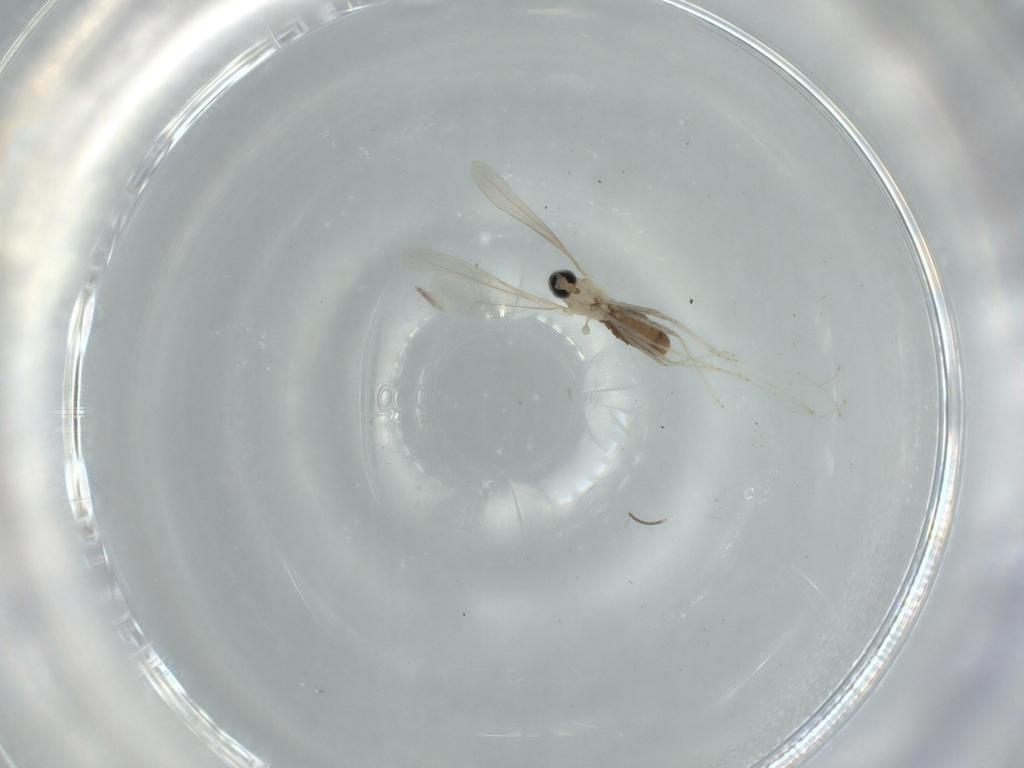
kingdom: Animalia
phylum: Arthropoda
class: Insecta
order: Diptera
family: Cecidomyiidae
